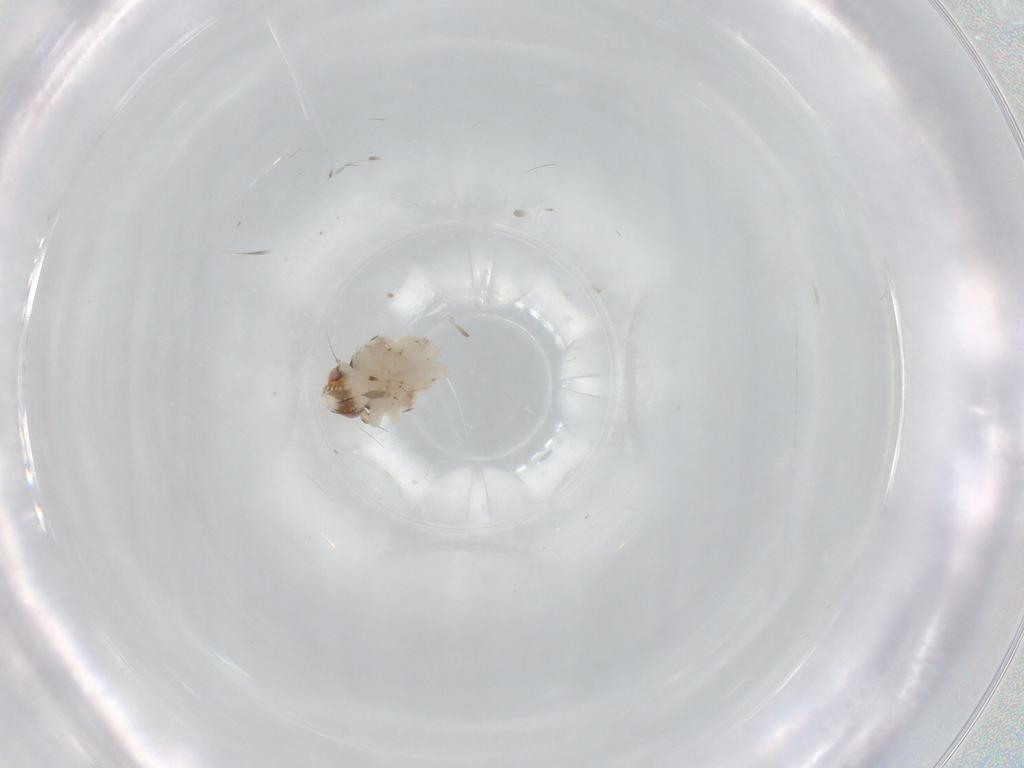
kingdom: Animalia
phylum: Arthropoda
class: Insecta
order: Hemiptera
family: Nogodinidae
